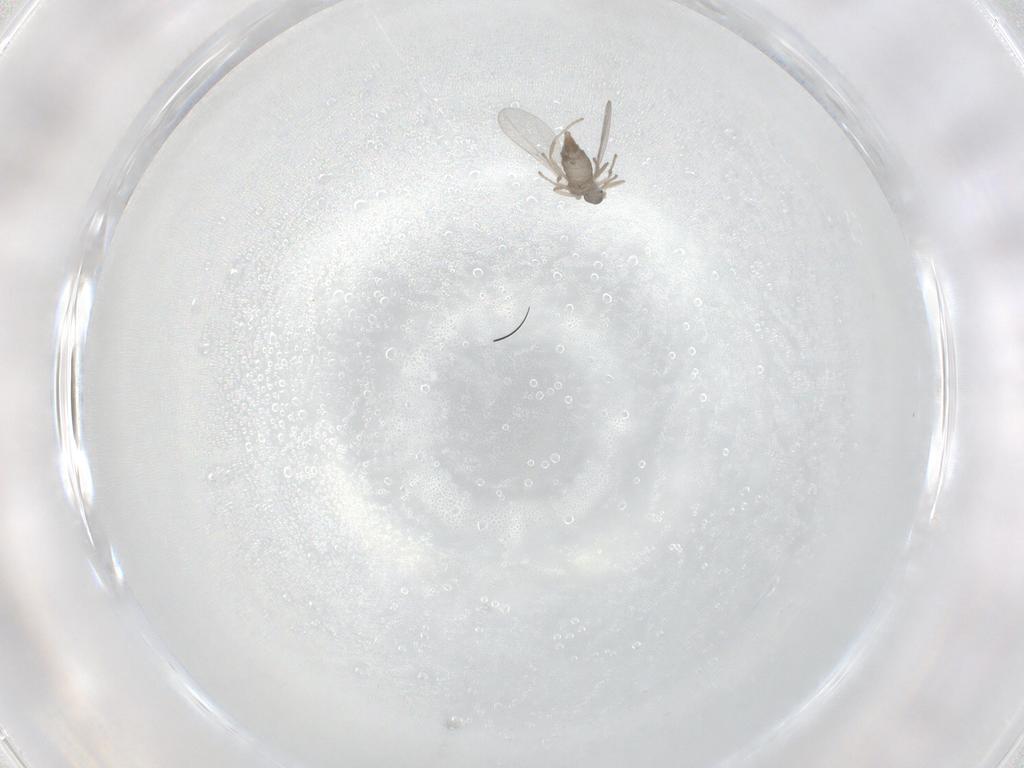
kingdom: Animalia
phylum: Arthropoda
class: Insecta
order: Diptera
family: Cecidomyiidae
